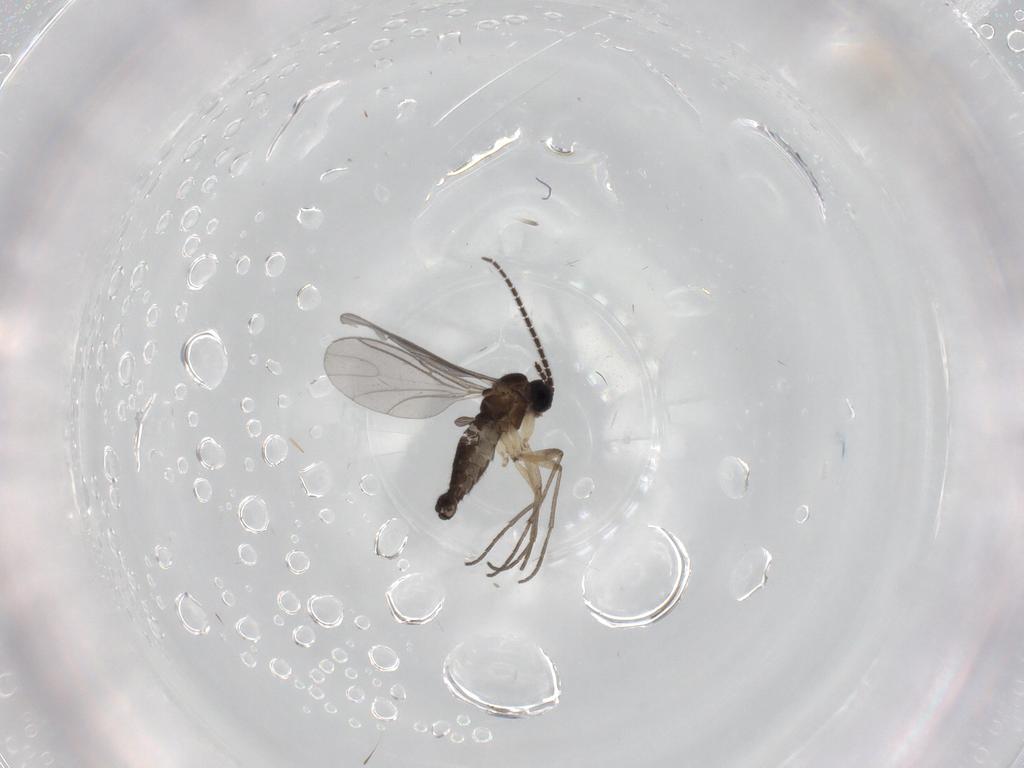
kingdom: Animalia
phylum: Arthropoda
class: Insecta
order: Diptera
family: Sciaridae
